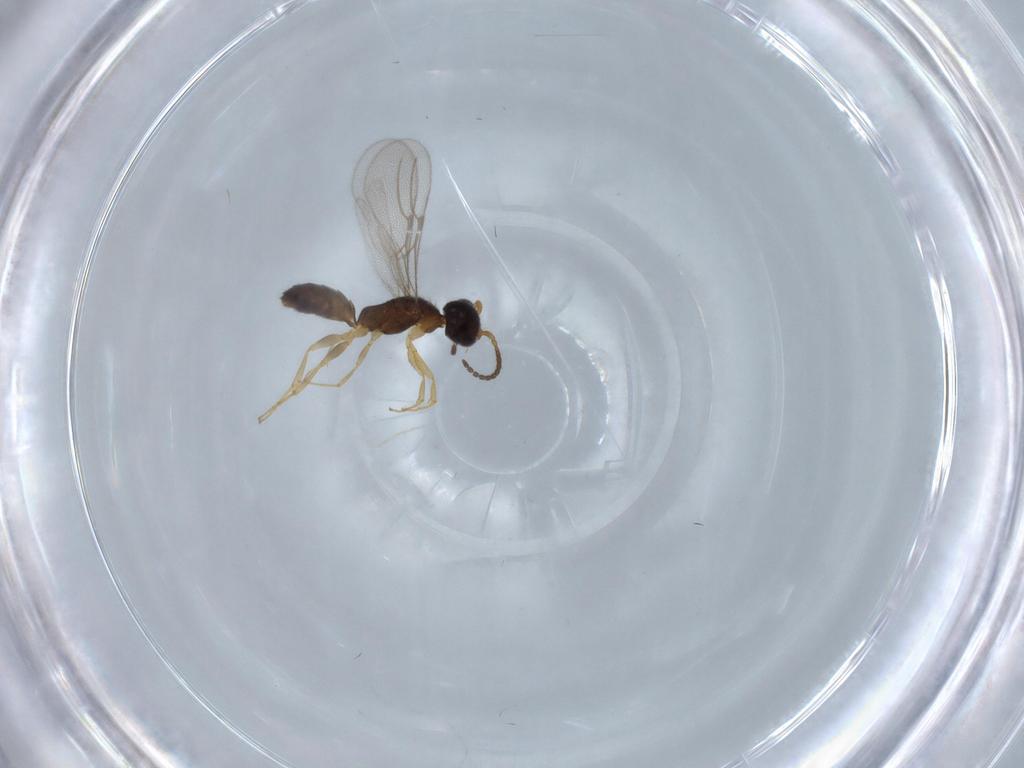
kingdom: Animalia
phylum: Arthropoda
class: Insecta
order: Hymenoptera
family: Bethylidae
